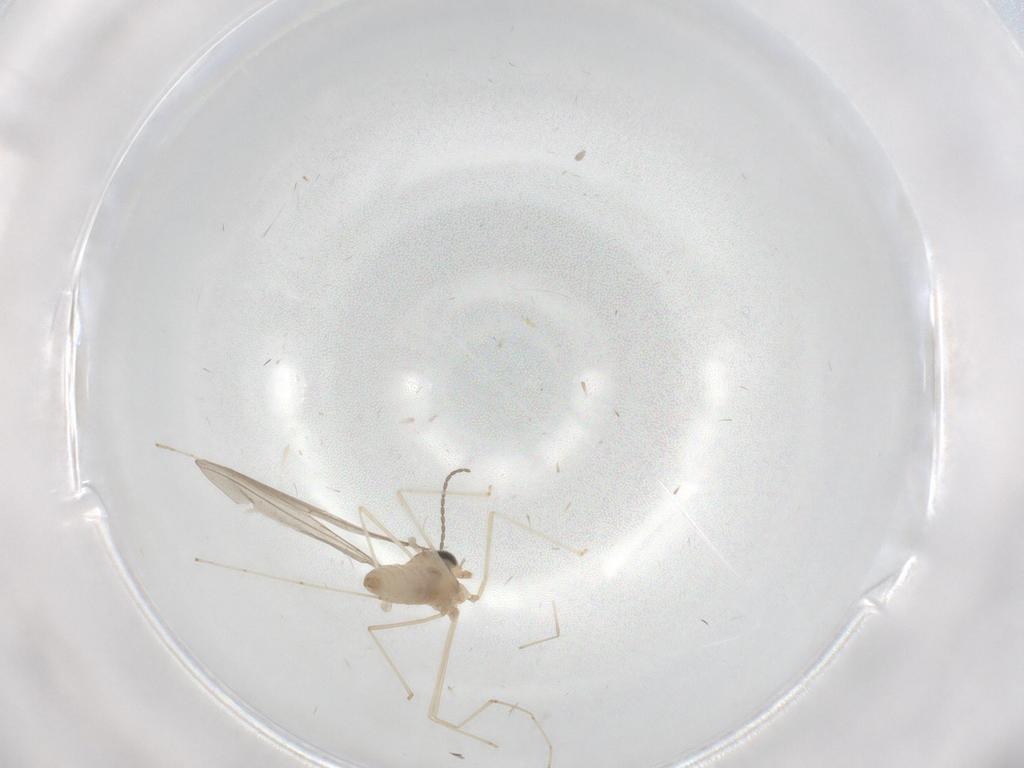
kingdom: Animalia
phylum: Arthropoda
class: Insecta
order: Diptera
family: Cecidomyiidae
